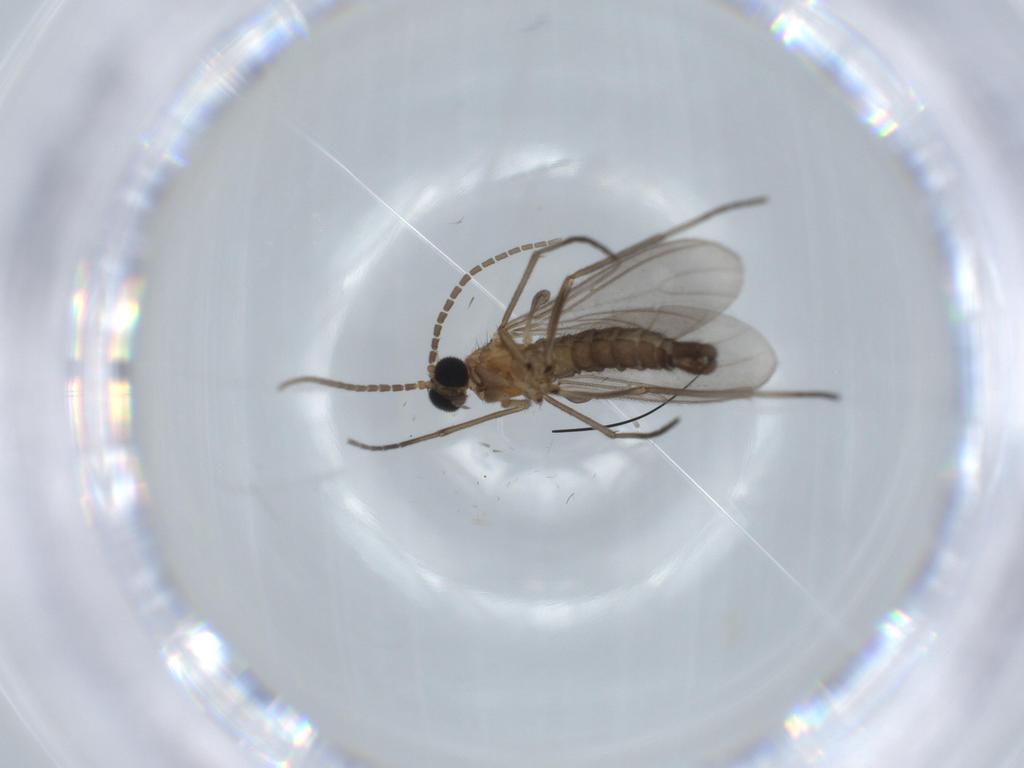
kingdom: Animalia
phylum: Arthropoda
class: Insecta
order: Diptera
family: Sciaridae
